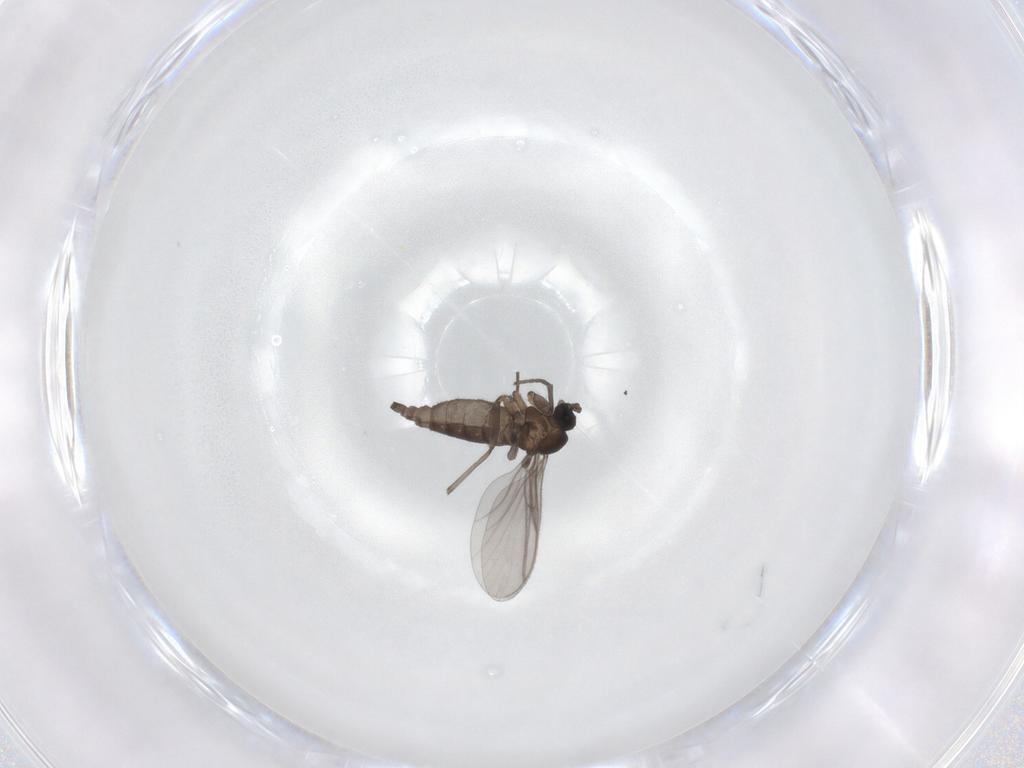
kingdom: Animalia
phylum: Arthropoda
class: Insecta
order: Diptera
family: Sciaridae
